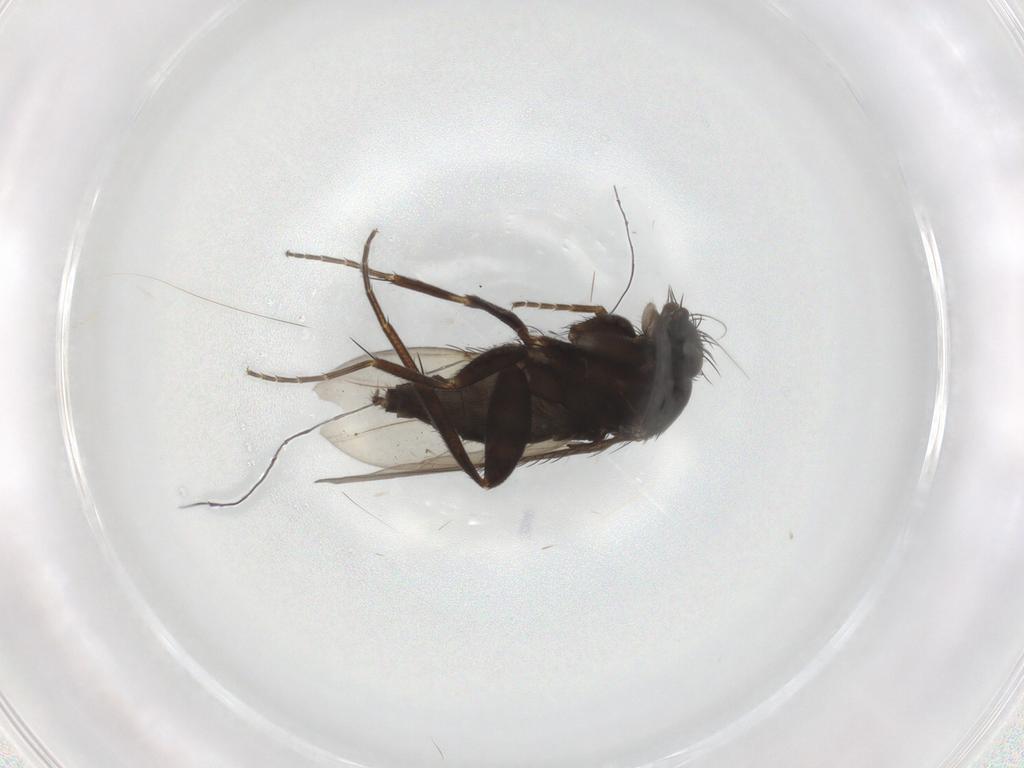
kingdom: Animalia
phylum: Arthropoda
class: Insecta
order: Diptera
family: Phoridae
